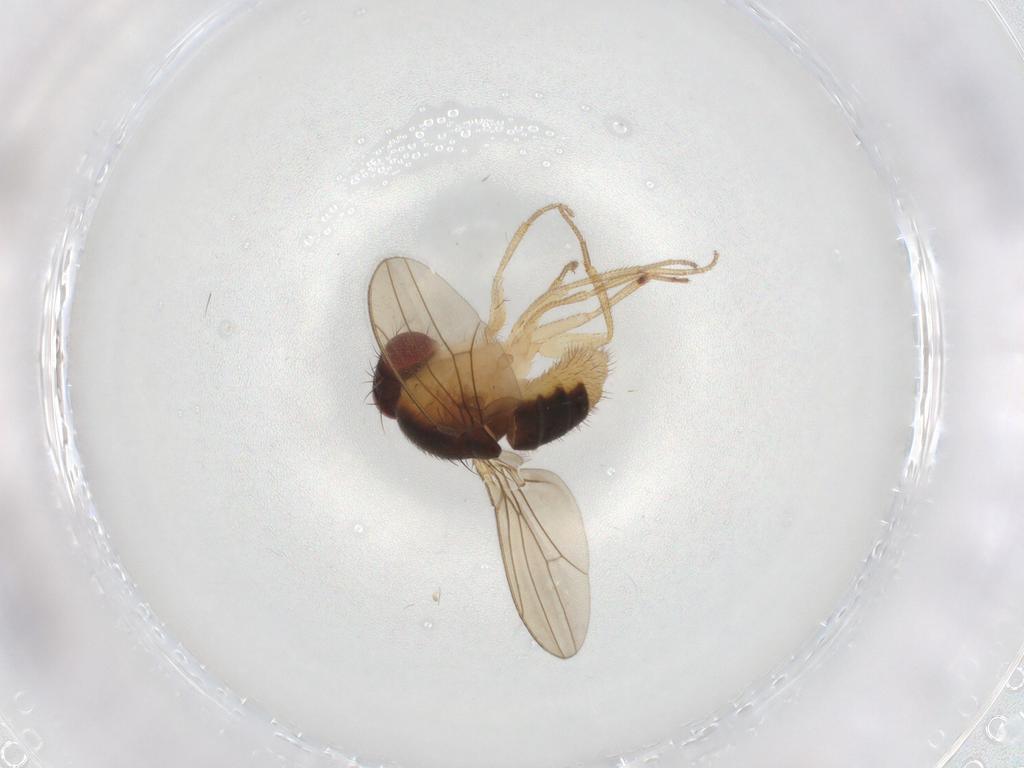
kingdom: Animalia
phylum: Arthropoda
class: Insecta
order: Diptera
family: Drosophilidae
